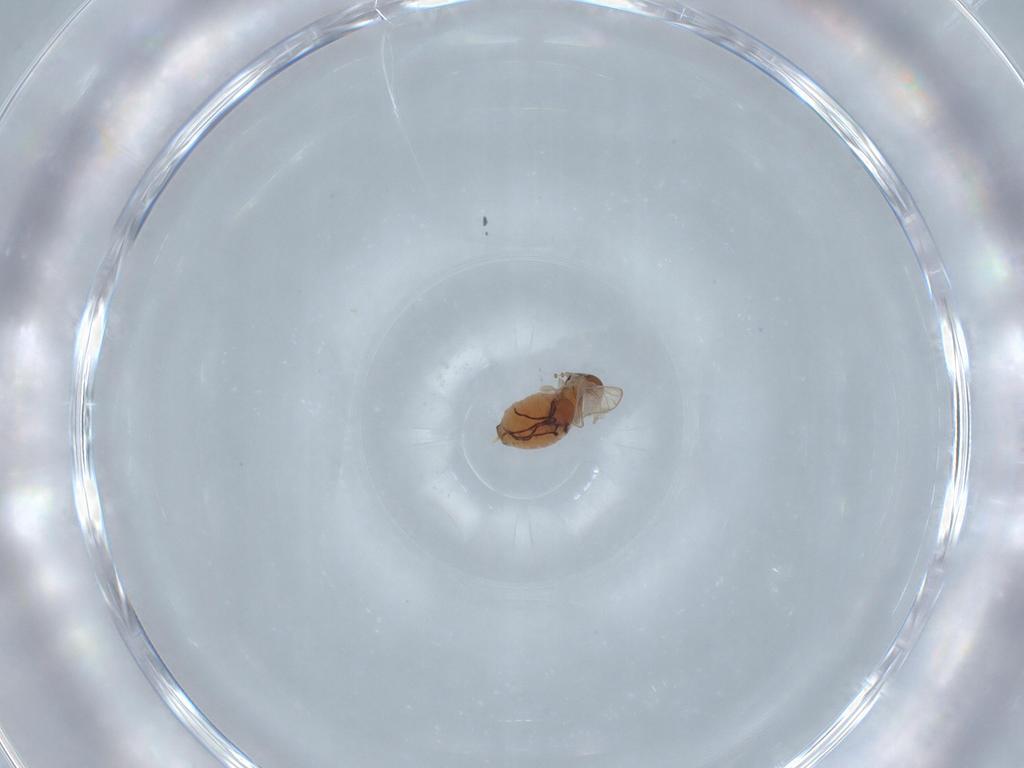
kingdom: Animalia
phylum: Arthropoda
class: Insecta
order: Diptera
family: Psychodidae
